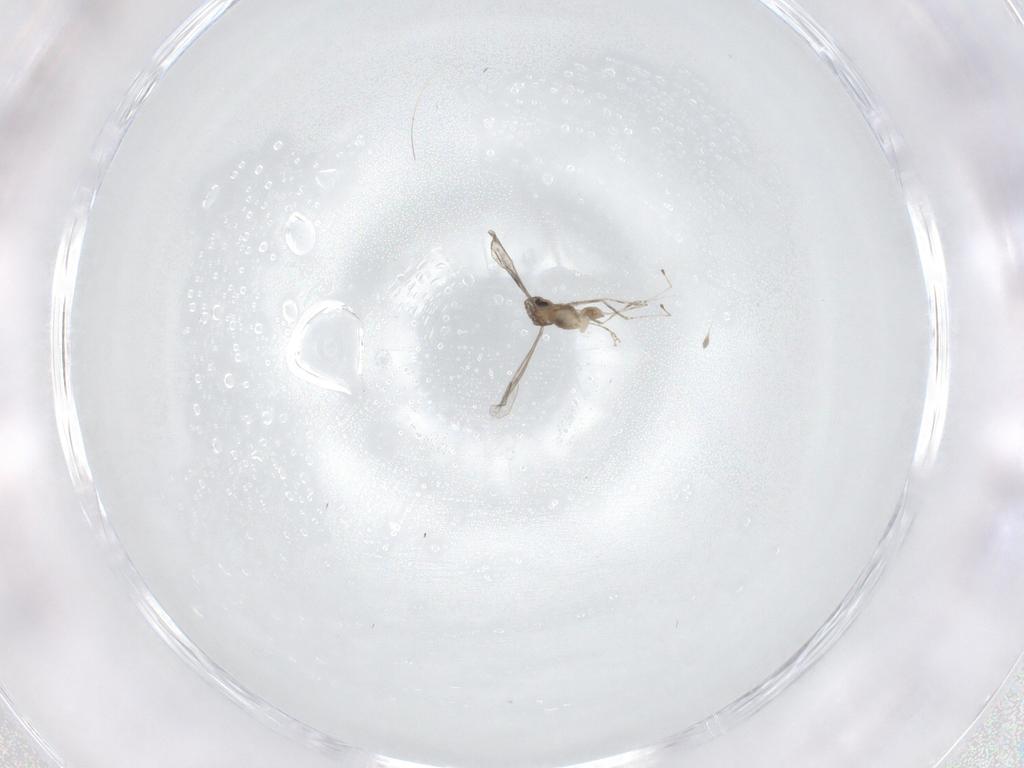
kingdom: Animalia
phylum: Arthropoda
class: Insecta
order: Diptera
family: Cecidomyiidae
